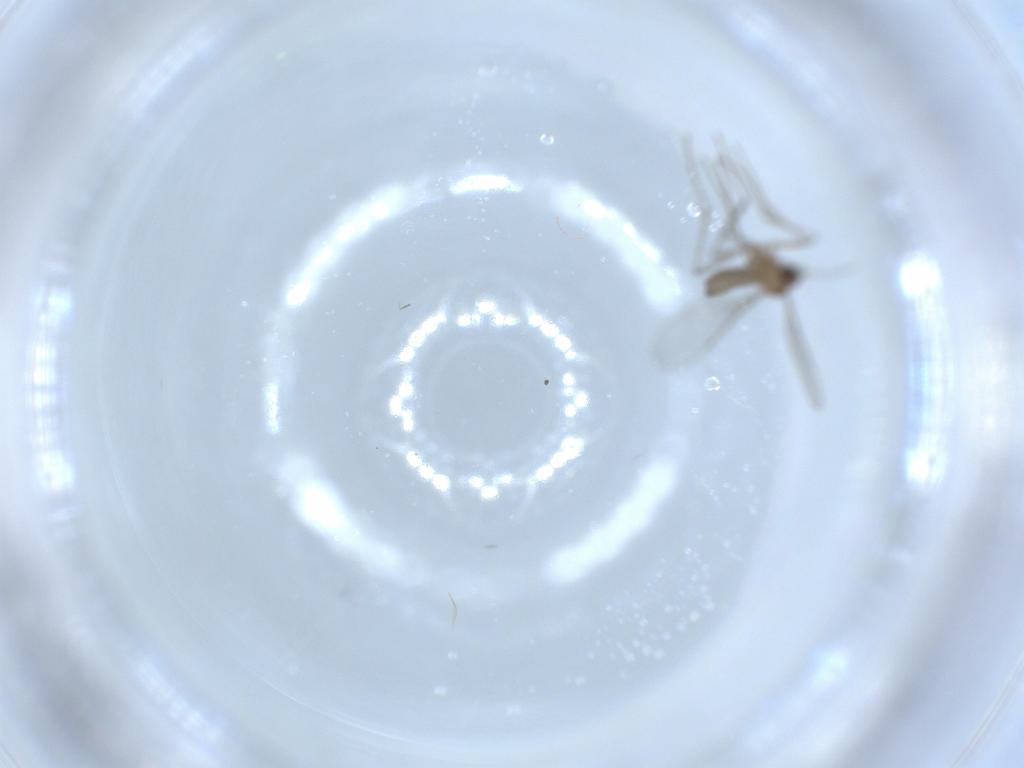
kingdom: Animalia
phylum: Arthropoda
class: Insecta
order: Diptera
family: Cecidomyiidae
